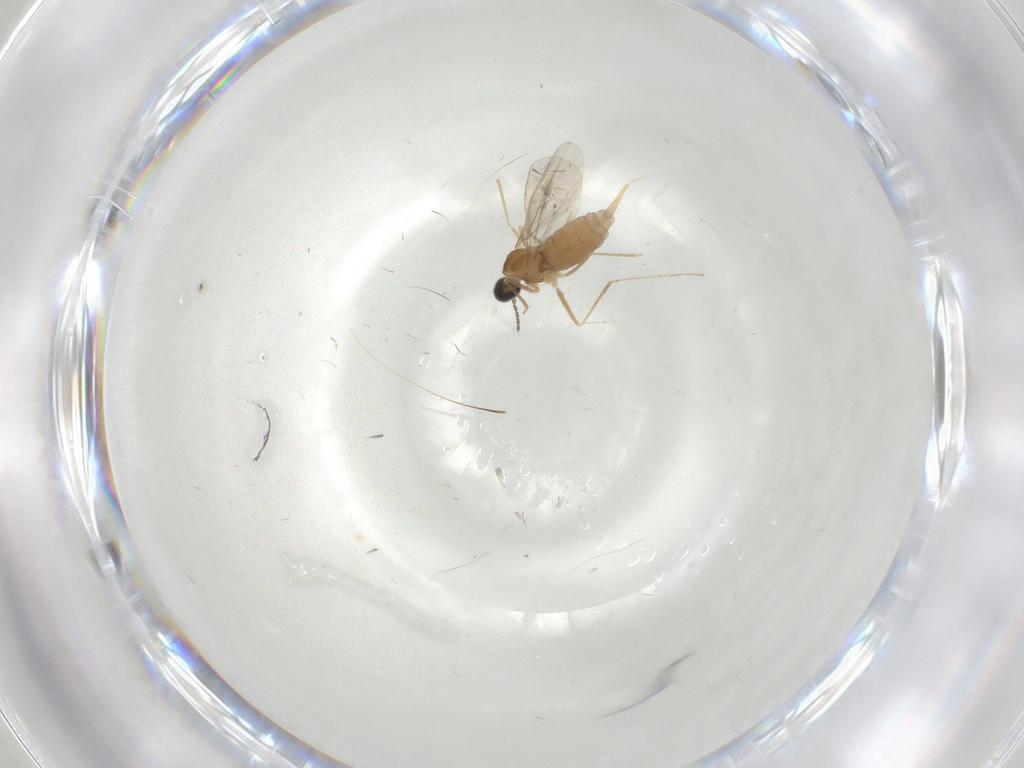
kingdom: Animalia
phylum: Arthropoda
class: Insecta
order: Diptera
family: Cecidomyiidae
